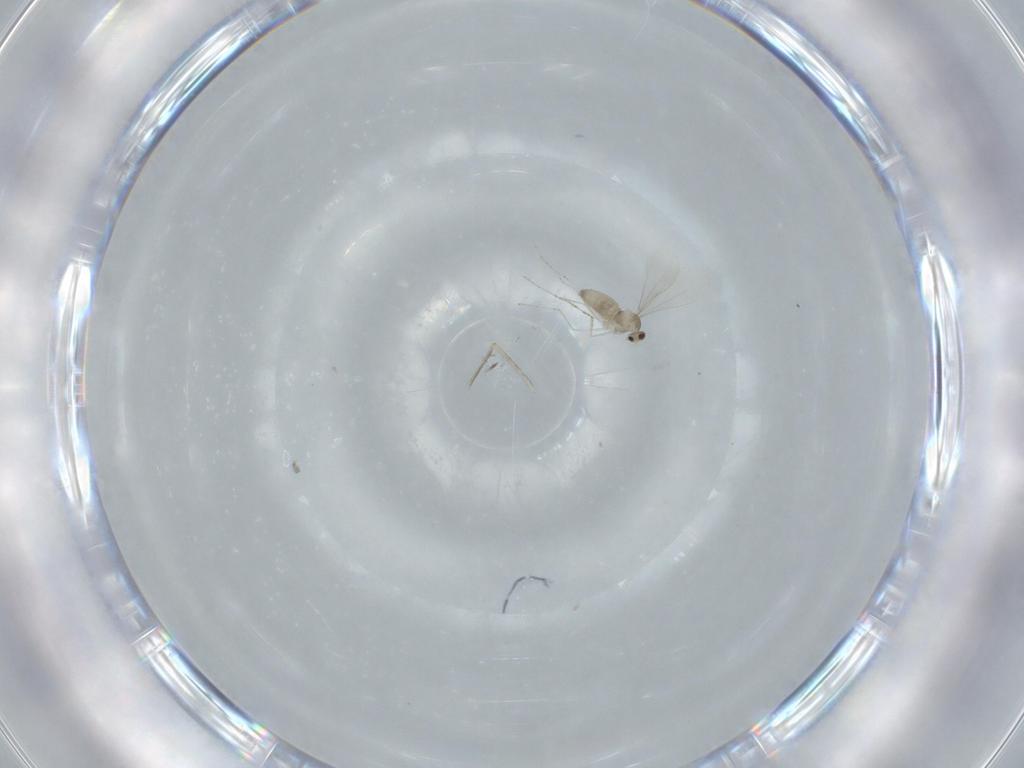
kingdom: Animalia
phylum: Arthropoda
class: Insecta
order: Diptera
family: Cecidomyiidae
